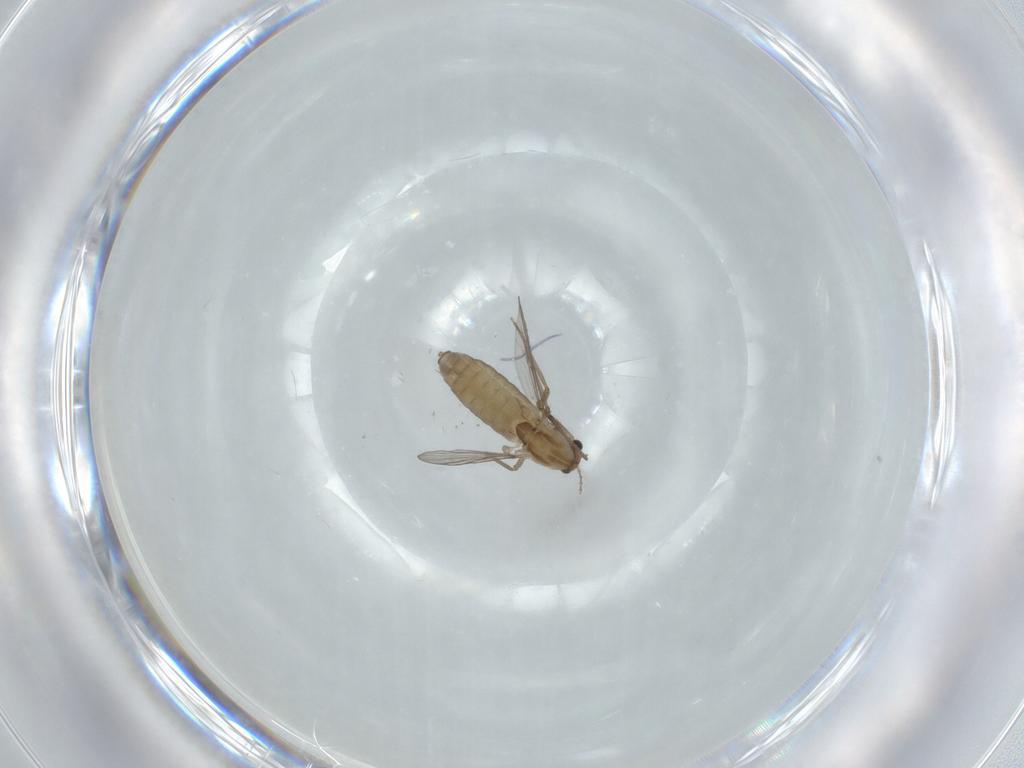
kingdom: Animalia
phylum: Arthropoda
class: Insecta
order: Diptera
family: Chironomidae
